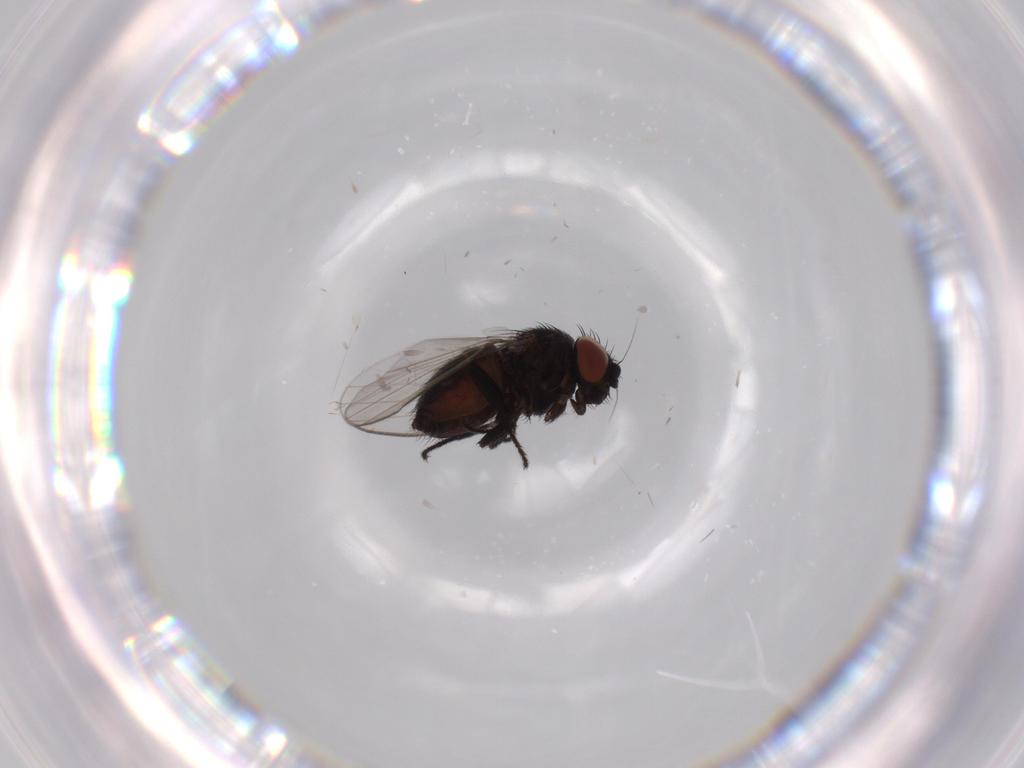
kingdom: Animalia
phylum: Arthropoda
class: Insecta
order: Diptera
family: Milichiidae
